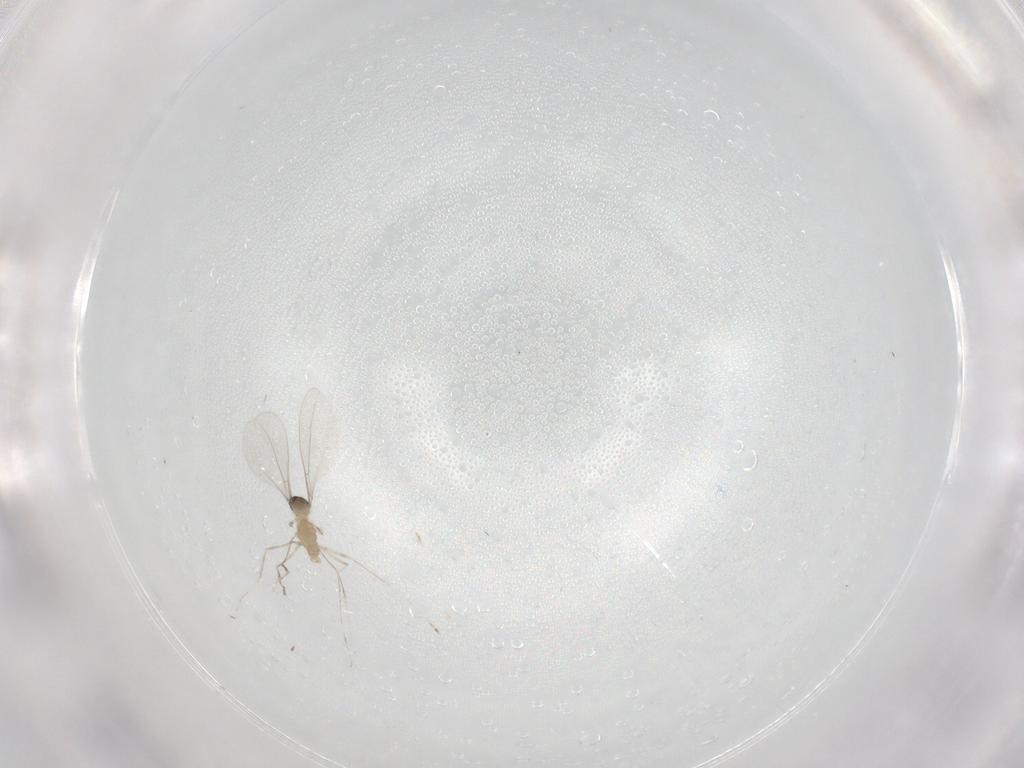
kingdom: Animalia
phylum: Arthropoda
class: Insecta
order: Diptera
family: Cecidomyiidae
